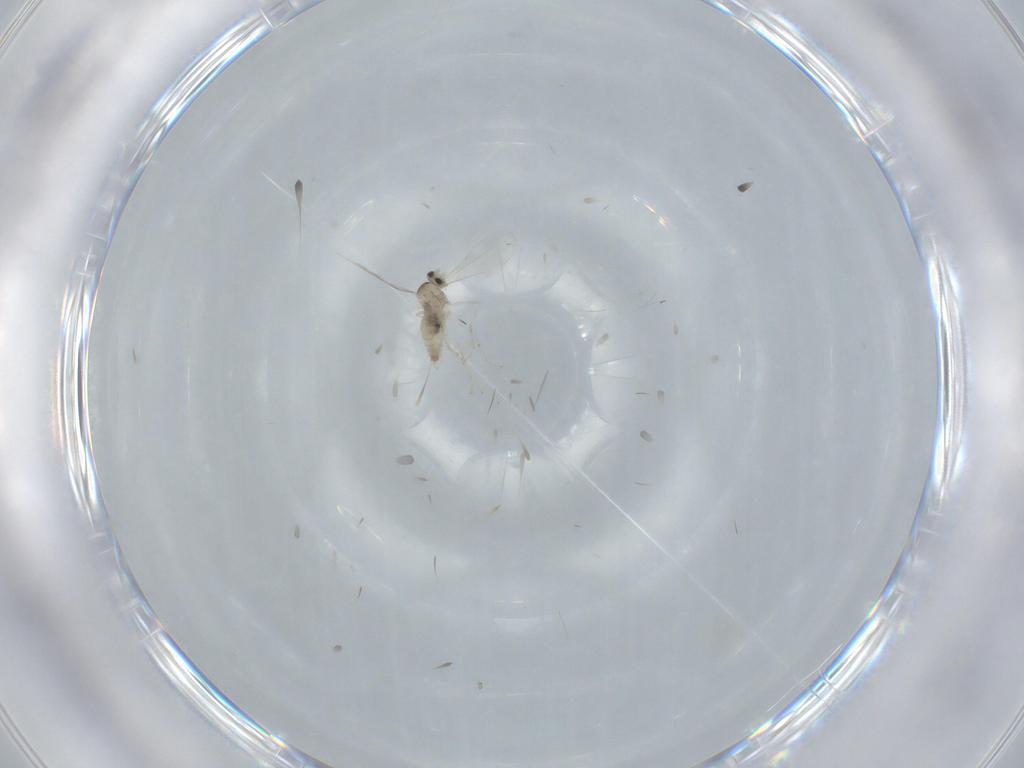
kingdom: Animalia
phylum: Arthropoda
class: Insecta
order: Diptera
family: Cecidomyiidae
